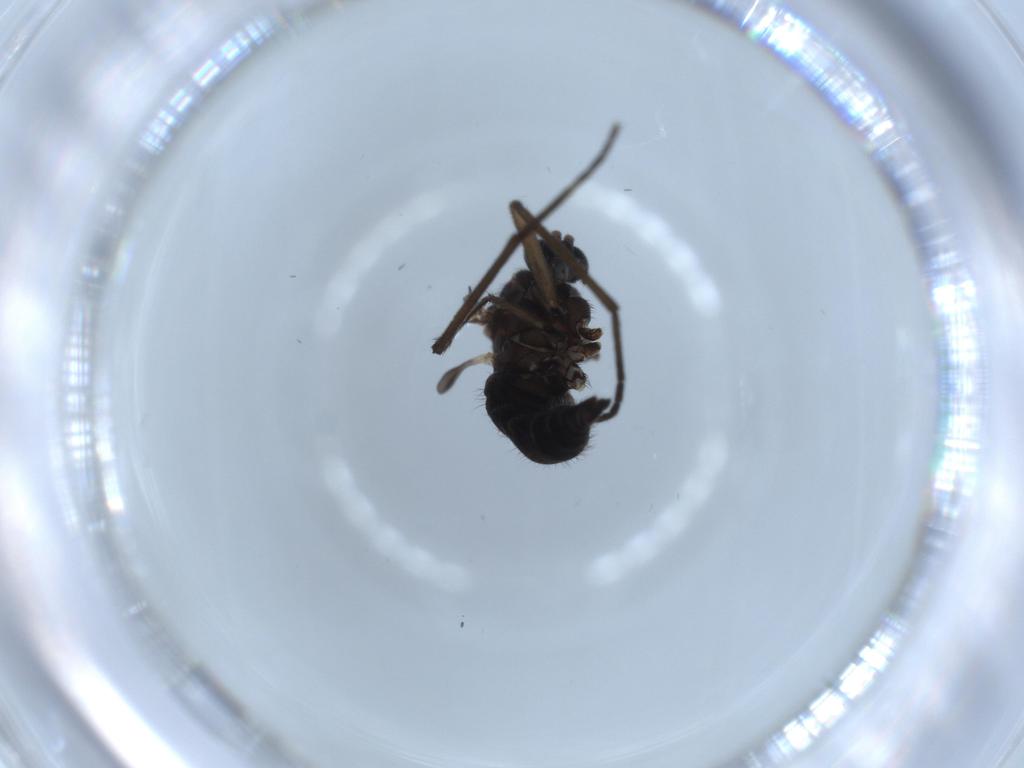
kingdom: Animalia
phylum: Arthropoda
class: Insecta
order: Diptera
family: Sciaridae
